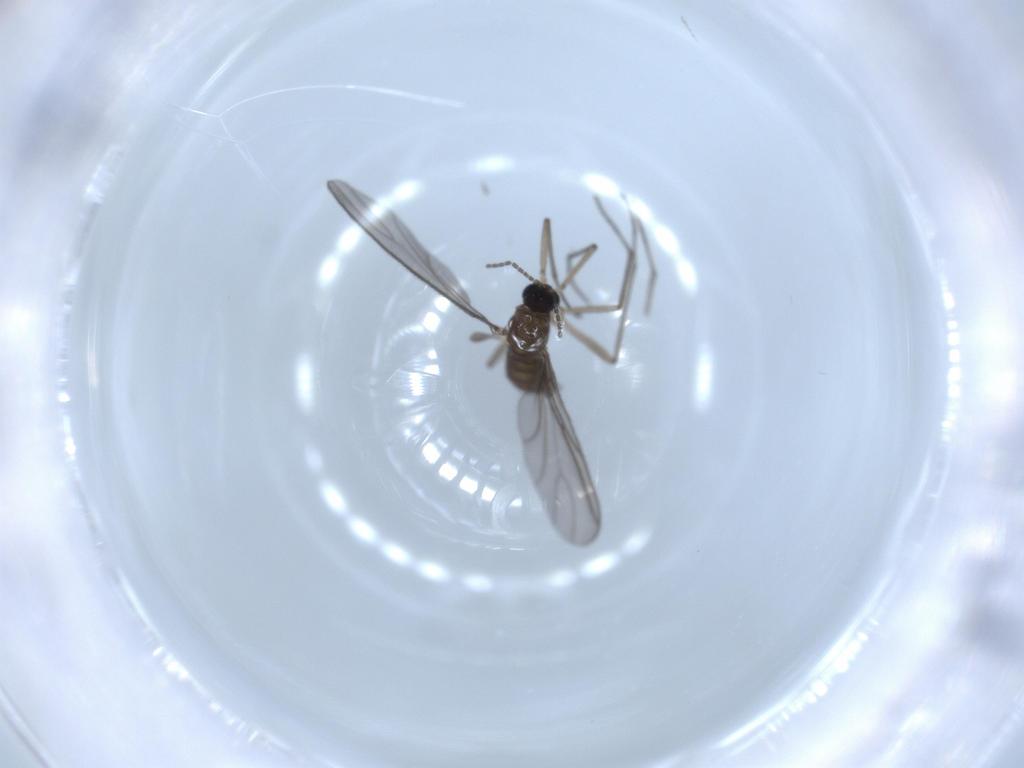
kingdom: Animalia
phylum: Arthropoda
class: Insecta
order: Diptera
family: Sciaridae
